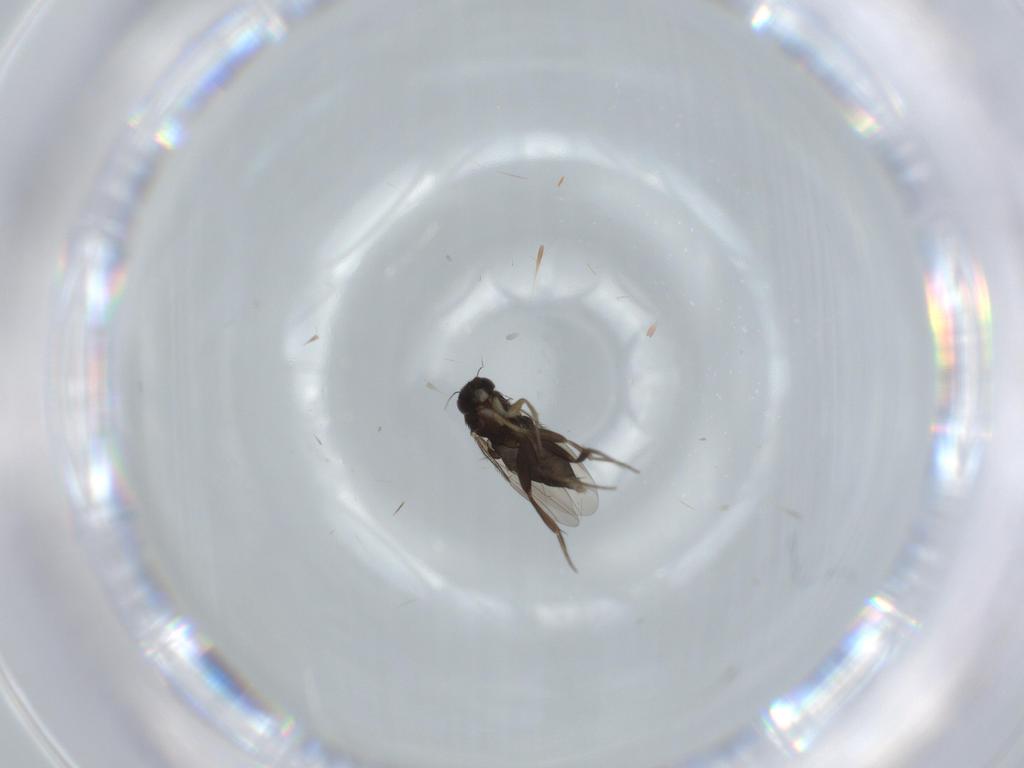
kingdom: Animalia
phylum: Arthropoda
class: Insecta
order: Diptera
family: Phoridae
